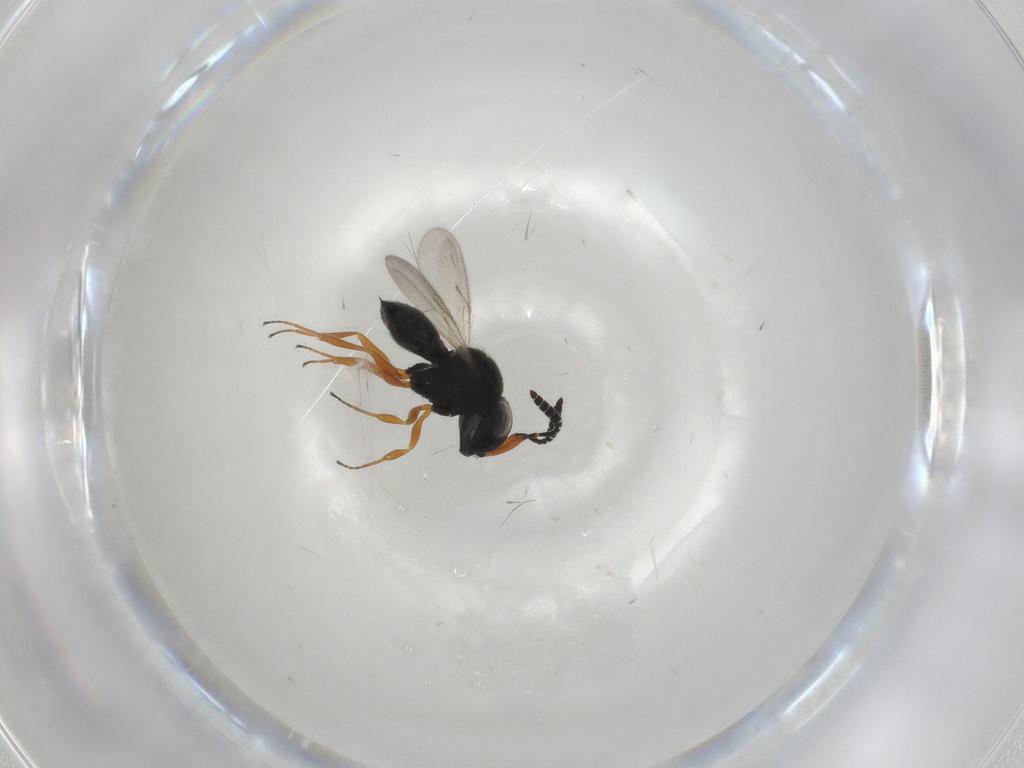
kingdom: Animalia
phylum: Arthropoda
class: Insecta
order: Hymenoptera
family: Scelionidae
